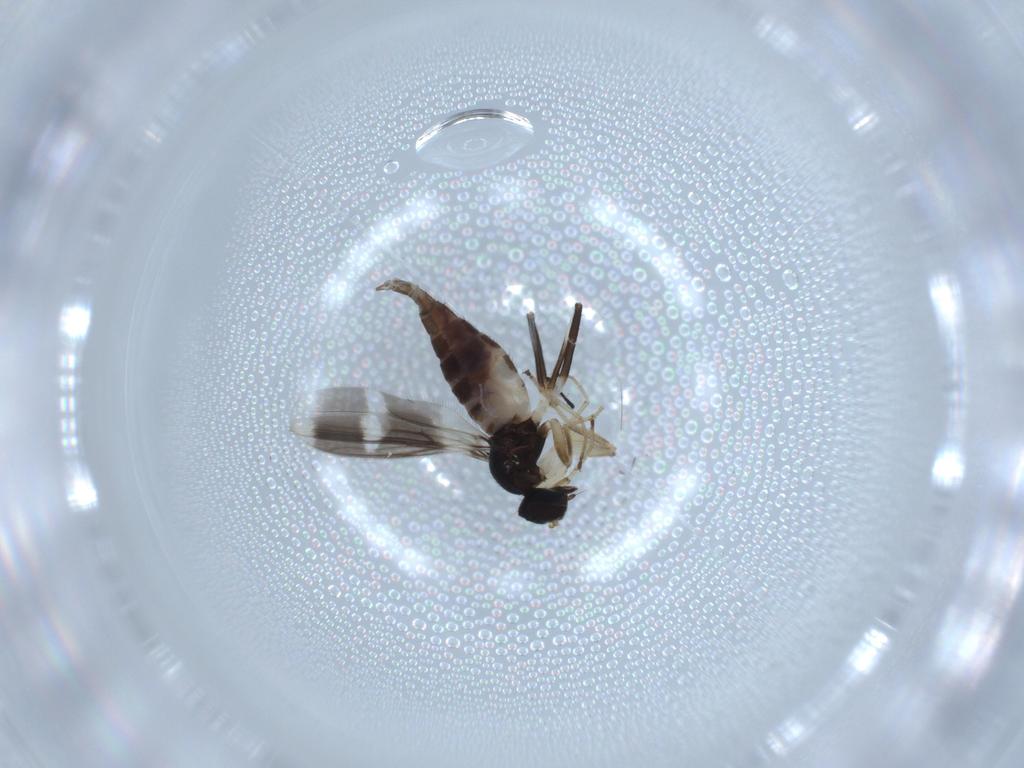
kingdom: Animalia
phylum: Arthropoda
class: Insecta
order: Diptera
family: Hybotidae
